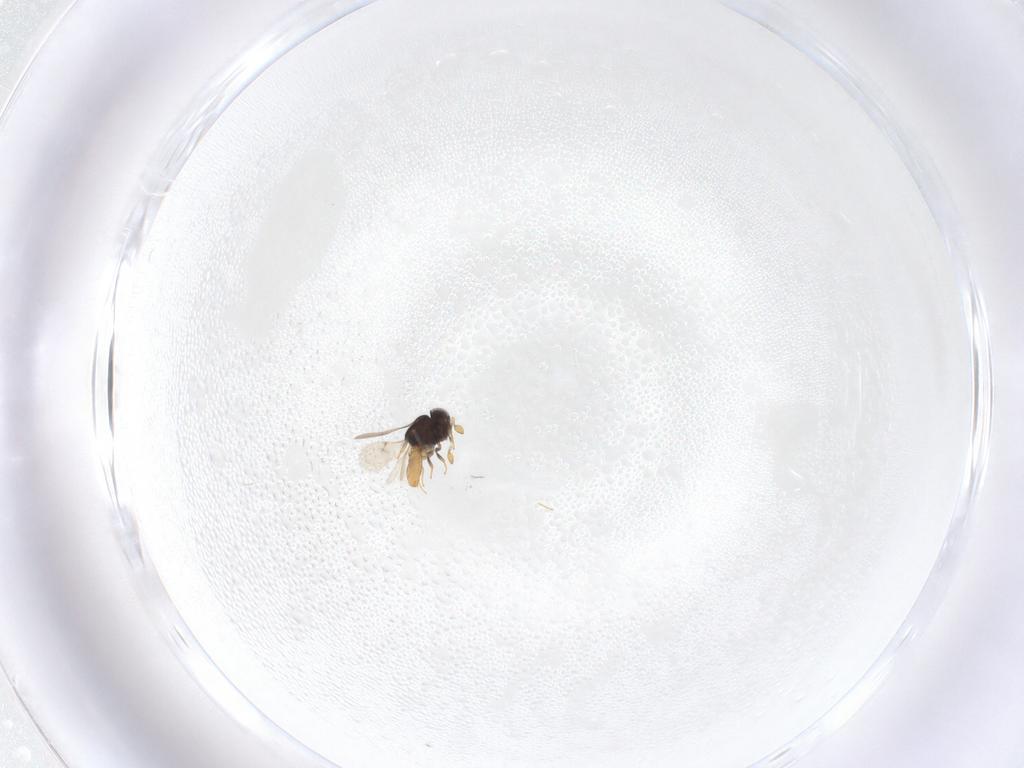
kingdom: Animalia
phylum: Arthropoda
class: Insecta
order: Hymenoptera
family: Scelionidae
